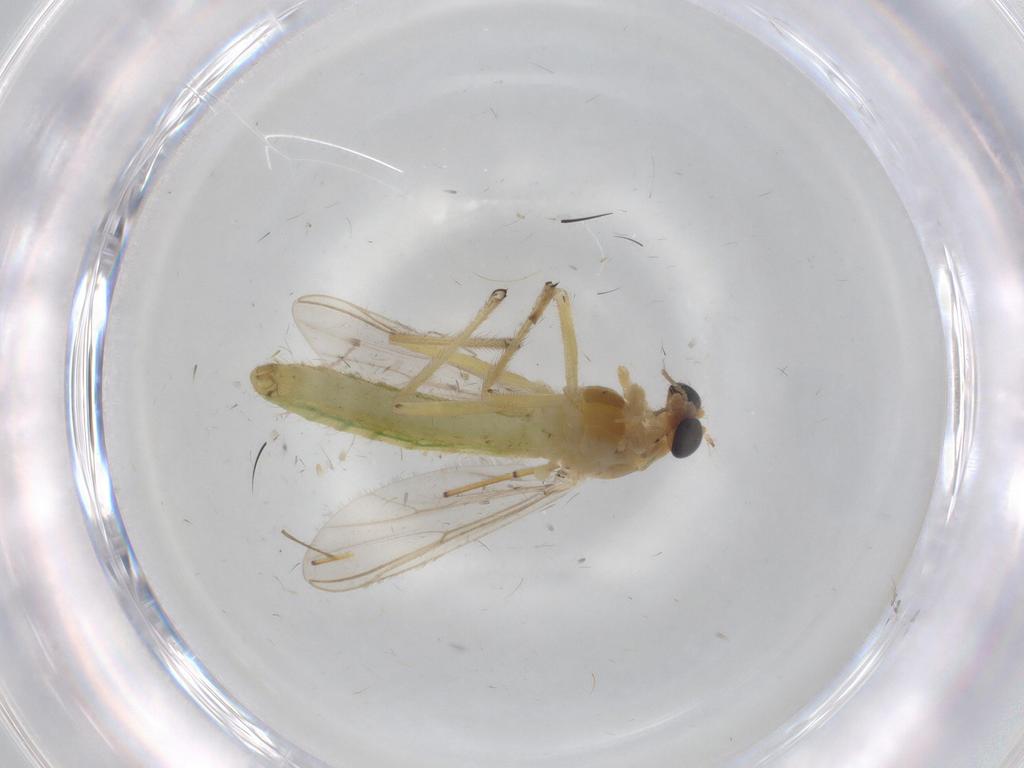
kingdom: Animalia
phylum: Arthropoda
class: Insecta
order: Diptera
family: Chironomidae
